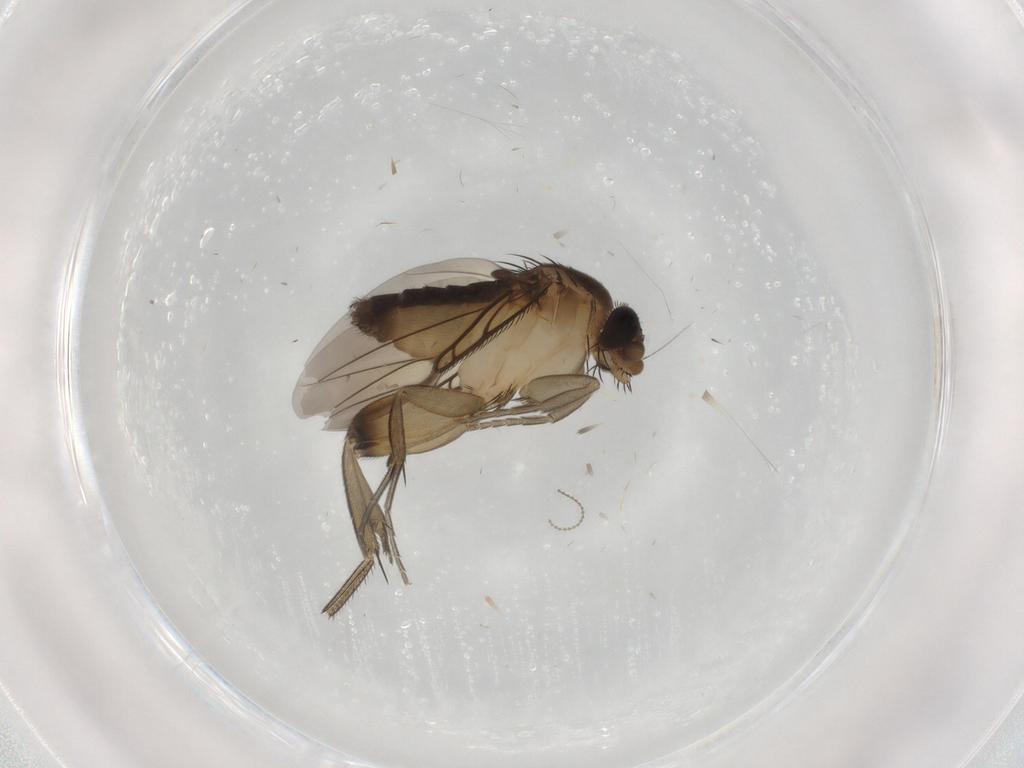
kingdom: Animalia
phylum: Arthropoda
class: Insecta
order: Diptera
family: Phoridae
